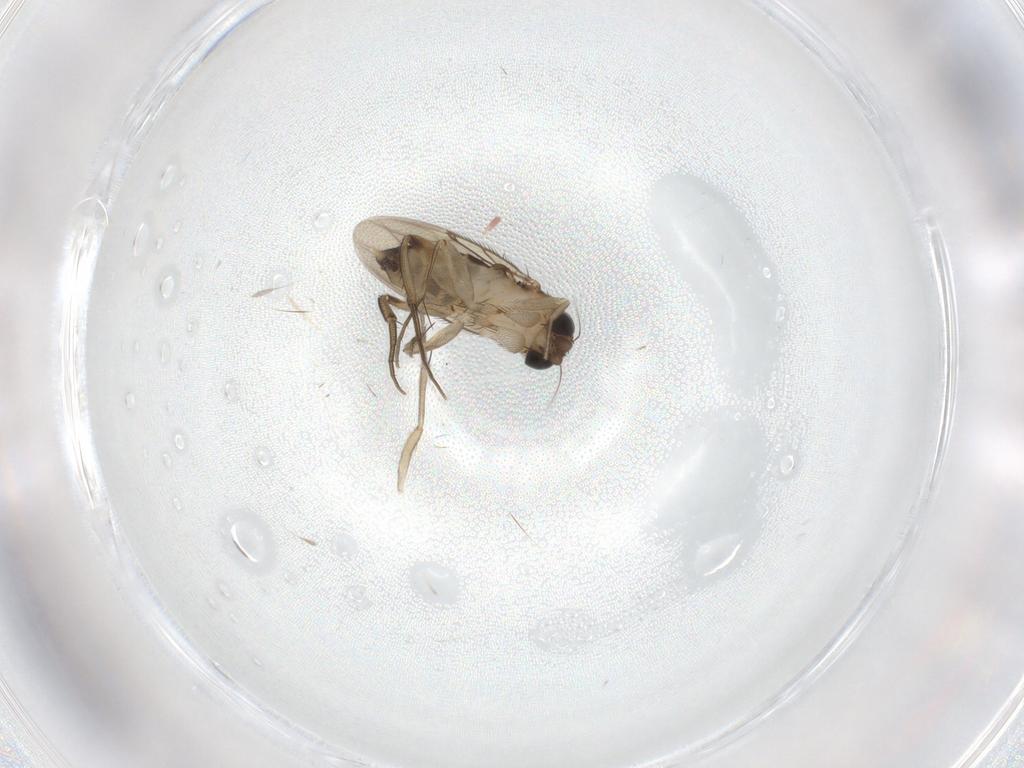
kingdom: Animalia
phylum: Arthropoda
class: Insecta
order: Diptera
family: Phoridae
